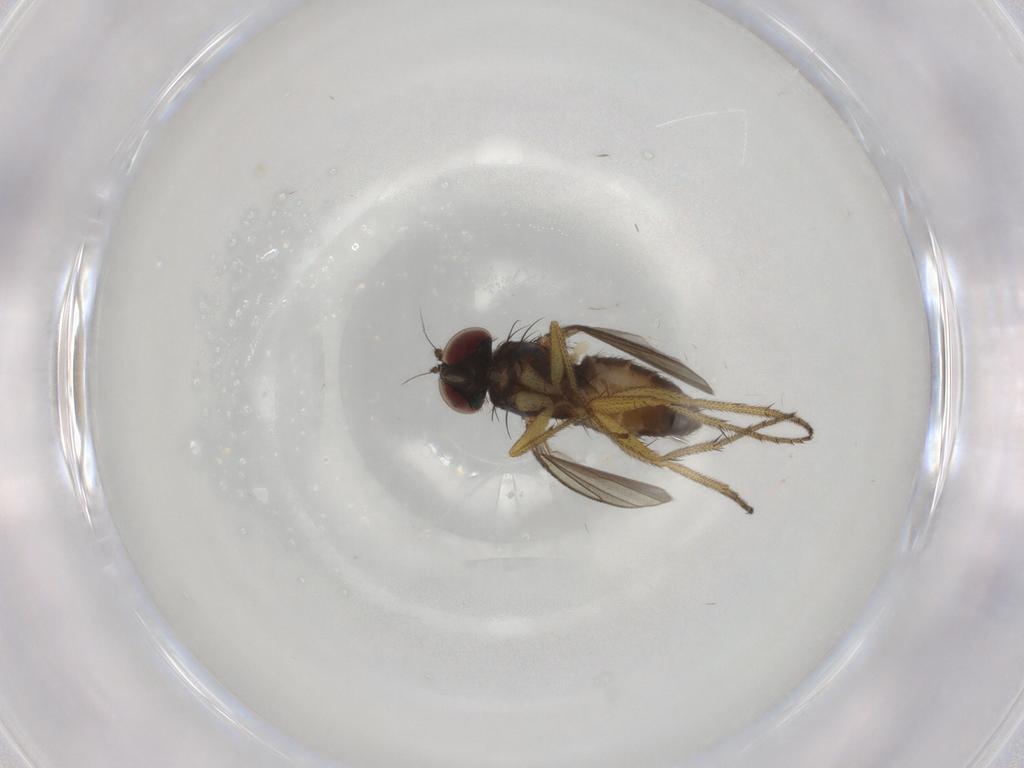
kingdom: Animalia
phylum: Arthropoda
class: Insecta
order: Diptera
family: Dolichopodidae
